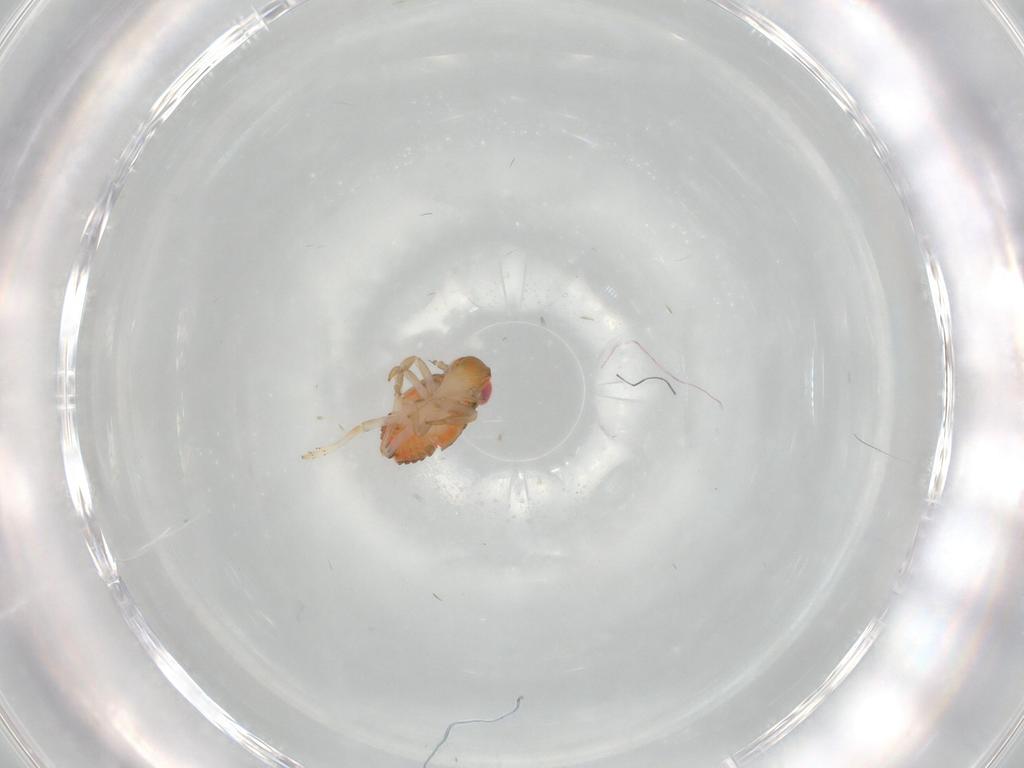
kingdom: Animalia
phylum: Arthropoda
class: Insecta
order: Hemiptera
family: Issidae
